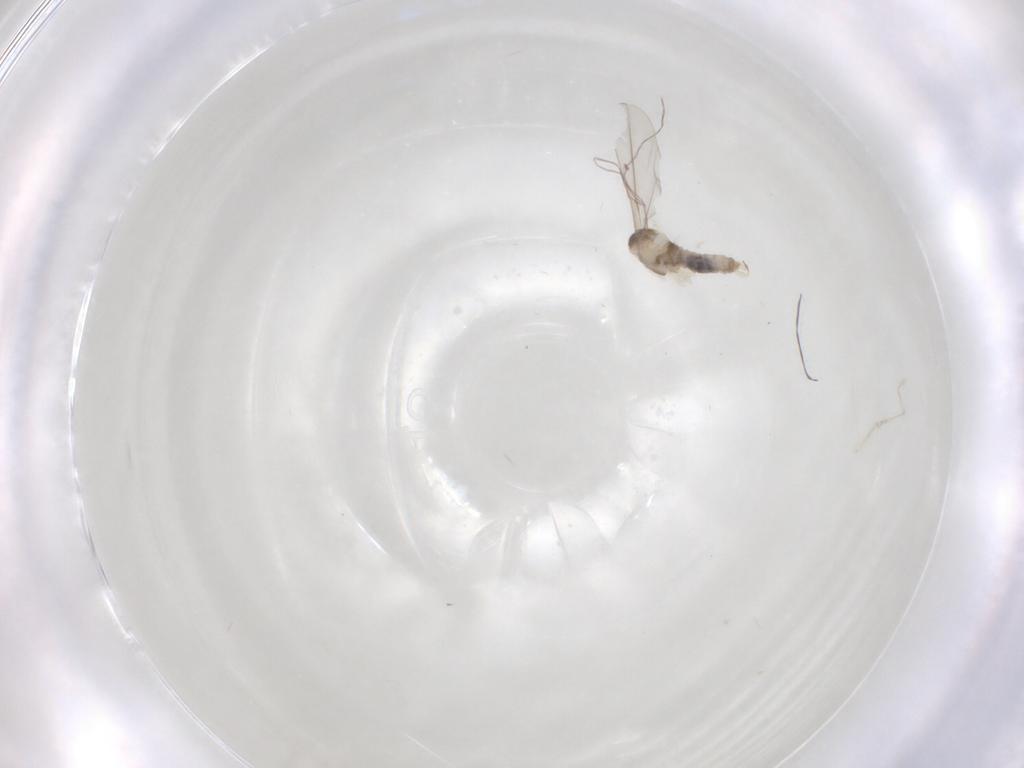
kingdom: Animalia
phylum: Arthropoda
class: Insecta
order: Diptera
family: Cecidomyiidae
